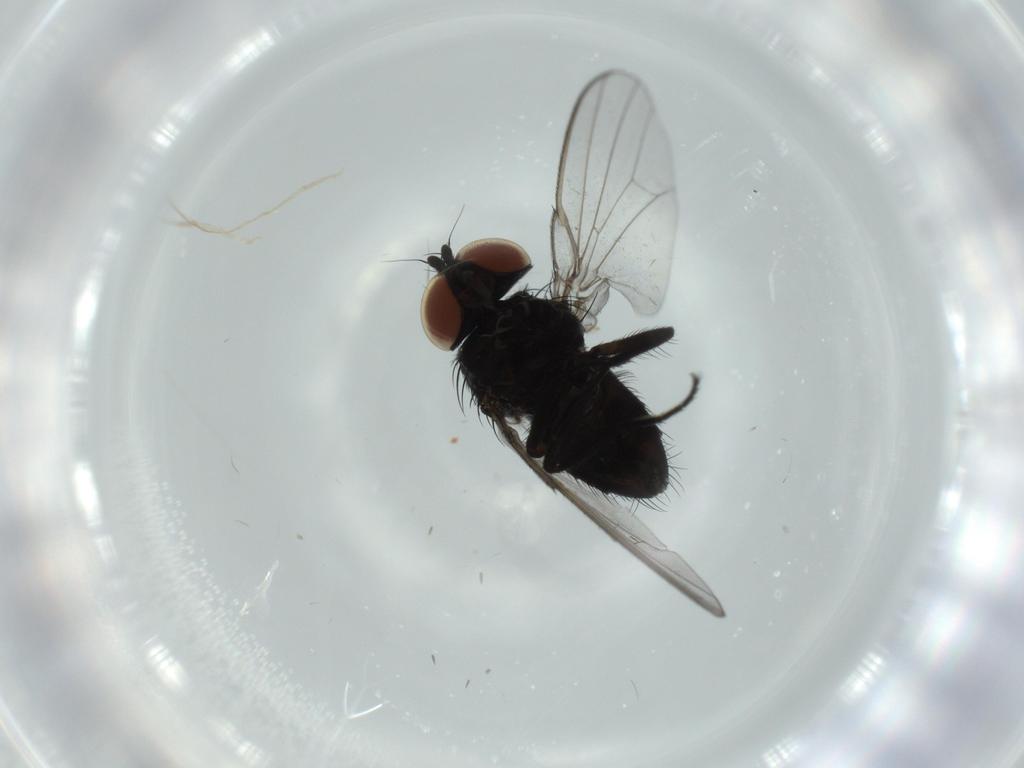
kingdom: Animalia
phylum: Arthropoda
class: Insecta
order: Diptera
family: Milichiidae
